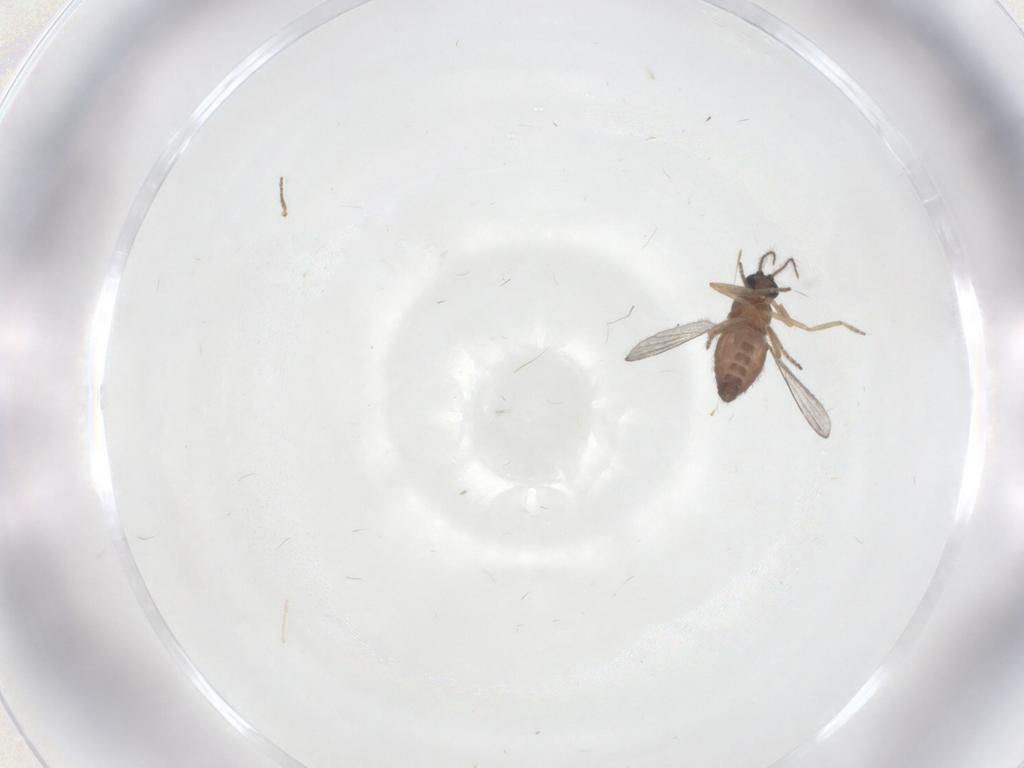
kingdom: Animalia
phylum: Arthropoda
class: Insecta
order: Diptera
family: Ceratopogonidae
